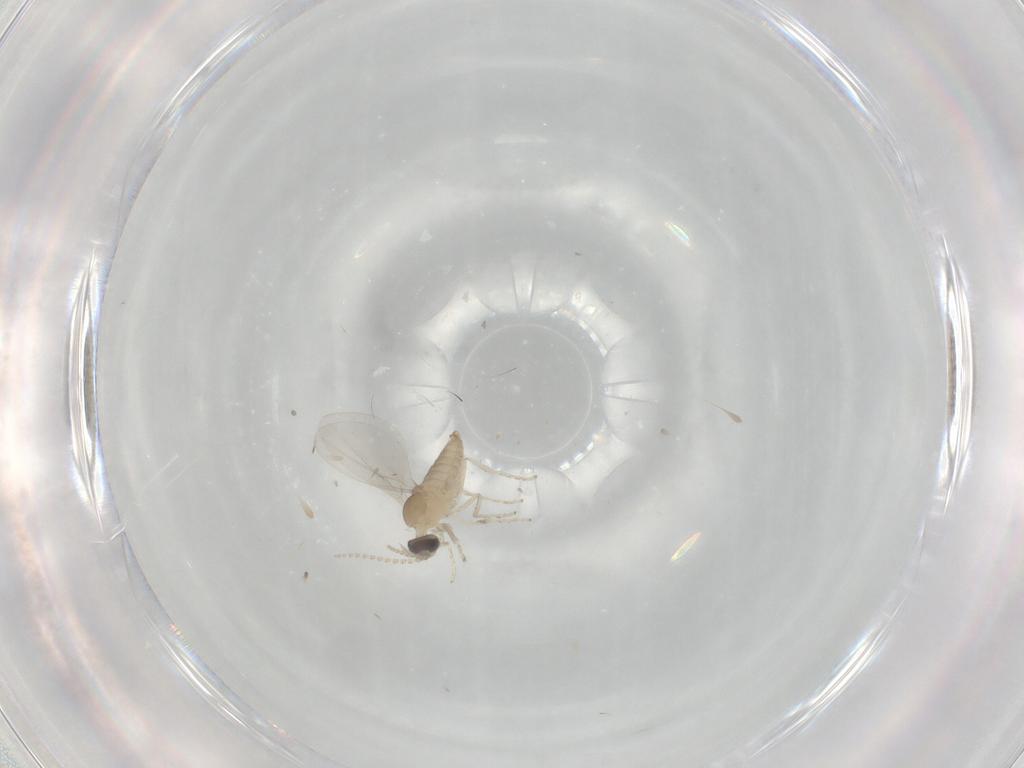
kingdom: Animalia
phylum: Arthropoda
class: Insecta
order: Diptera
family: Cecidomyiidae
